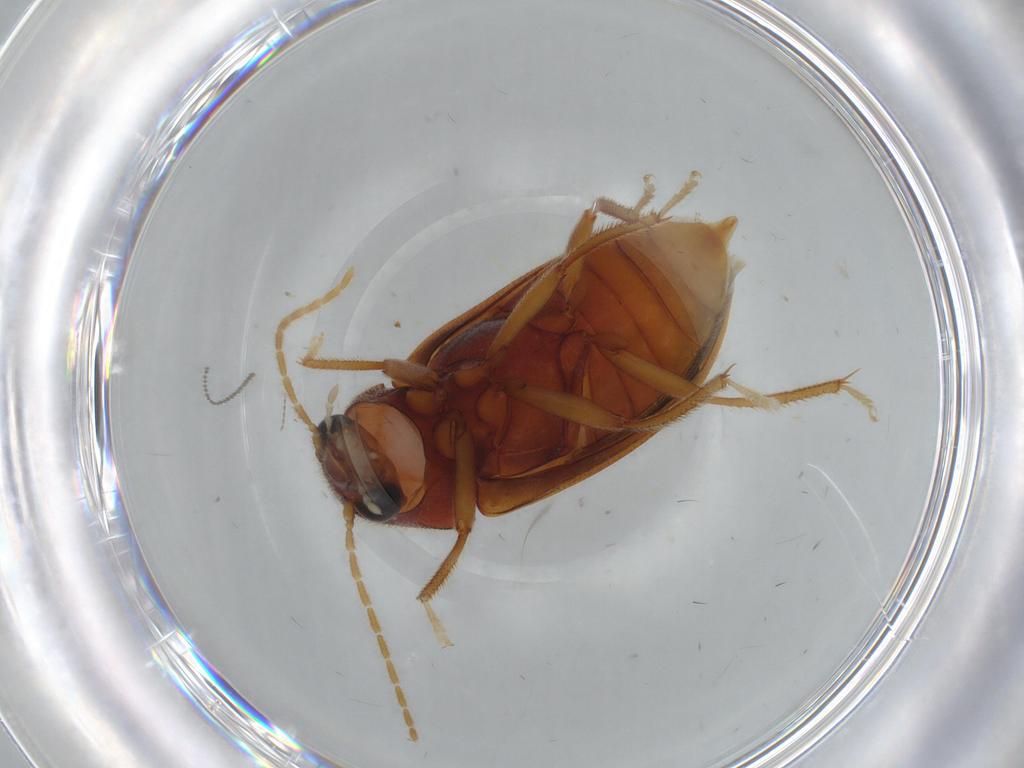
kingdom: Animalia
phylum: Arthropoda
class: Insecta
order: Coleoptera
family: Ptilodactylidae
